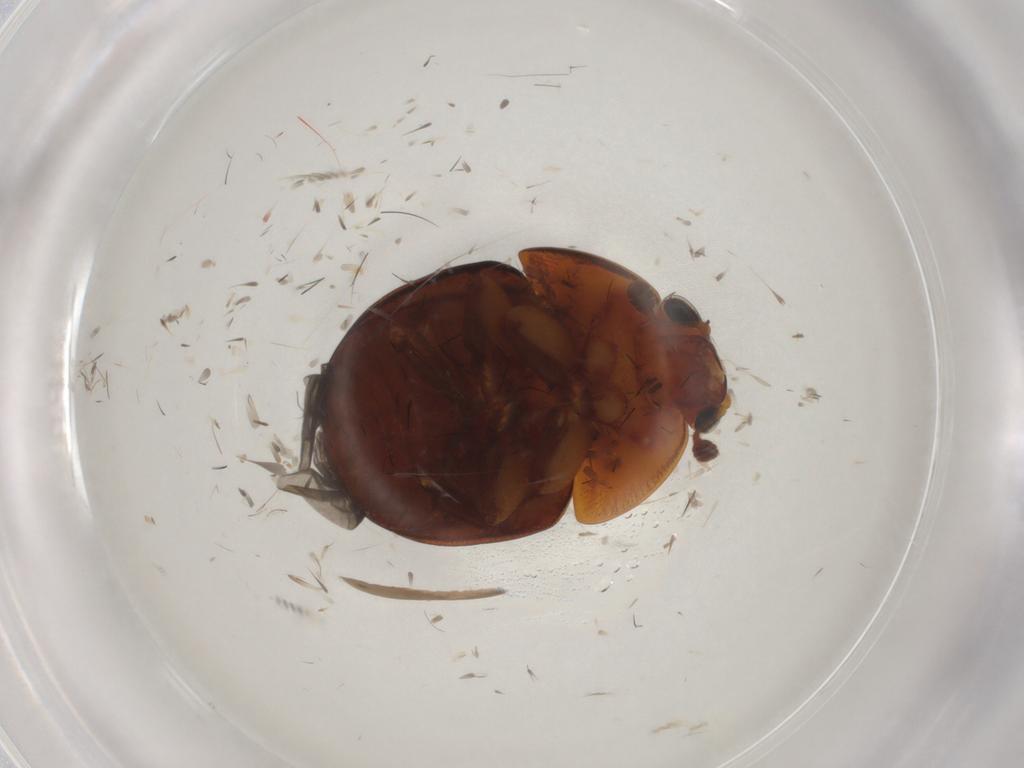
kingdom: Animalia
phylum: Arthropoda
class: Insecta
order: Coleoptera
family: Nitidulidae
